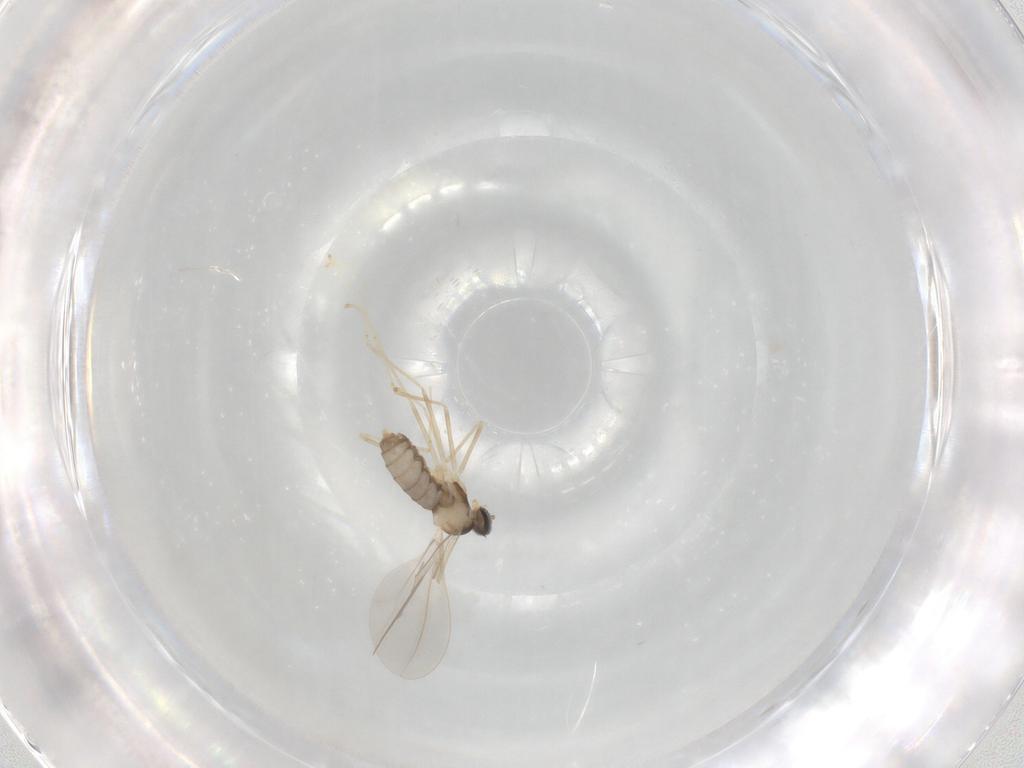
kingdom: Animalia
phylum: Arthropoda
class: Insecta
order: Diptera
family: Cecidomyiidae
